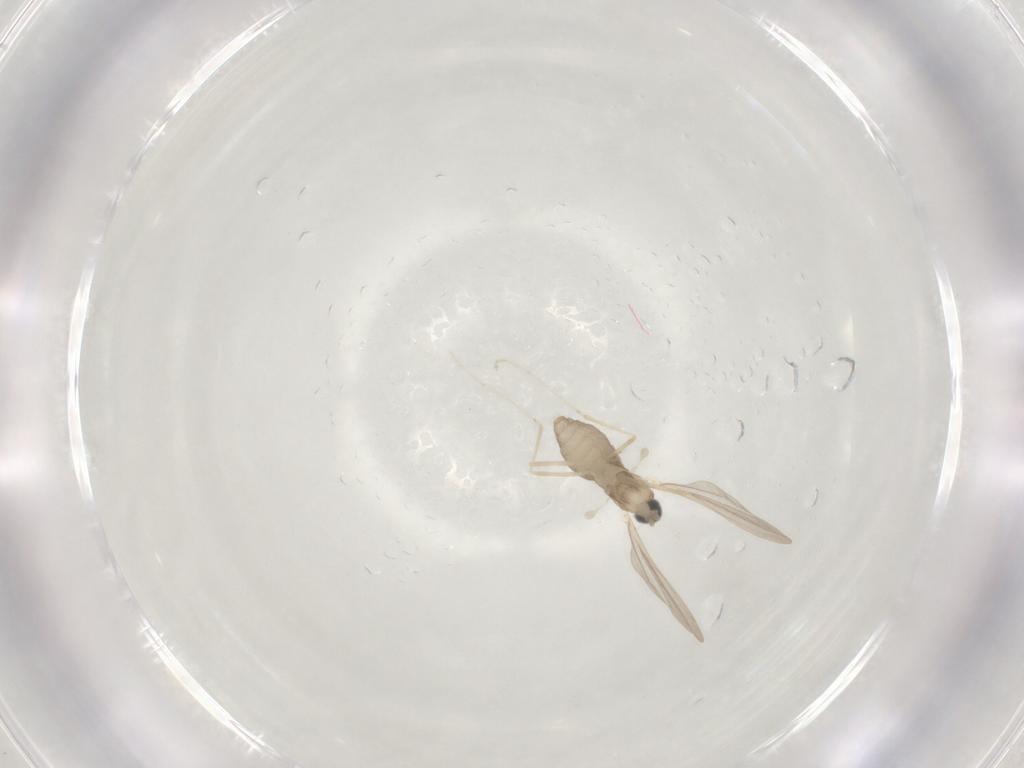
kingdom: Animalia
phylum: Arthropoda
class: Insecta
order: Diptera
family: Cecidomyiidae
